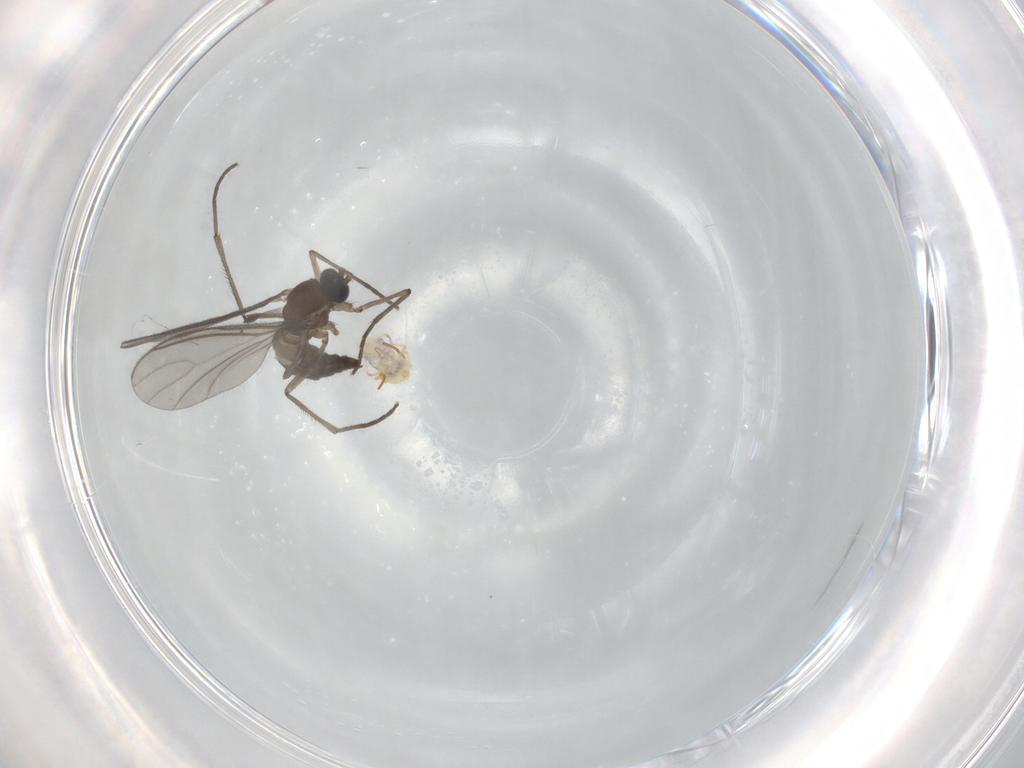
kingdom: Animalia
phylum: Arthropoda
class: Insecta
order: Diptera
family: Sciaridae
